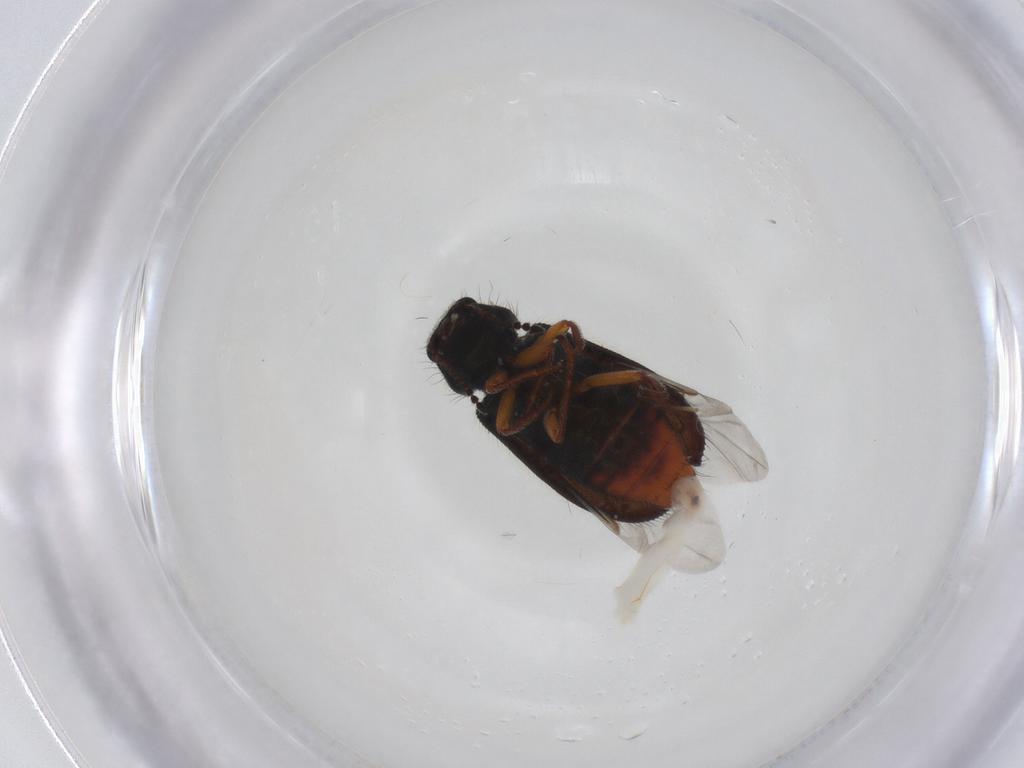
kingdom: Animalia
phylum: Arthropoda
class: Insecta
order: Coleoptera
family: Melyridae
